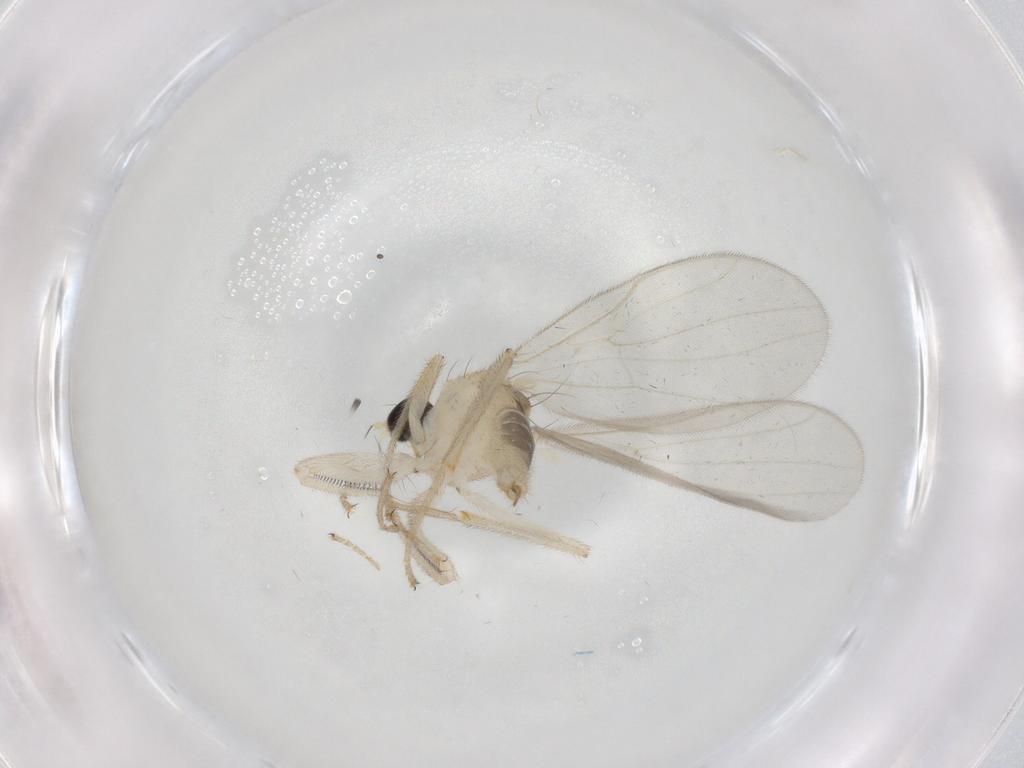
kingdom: Animalia
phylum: Arthropoda
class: Insecta
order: Diptera
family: Hybotidae
